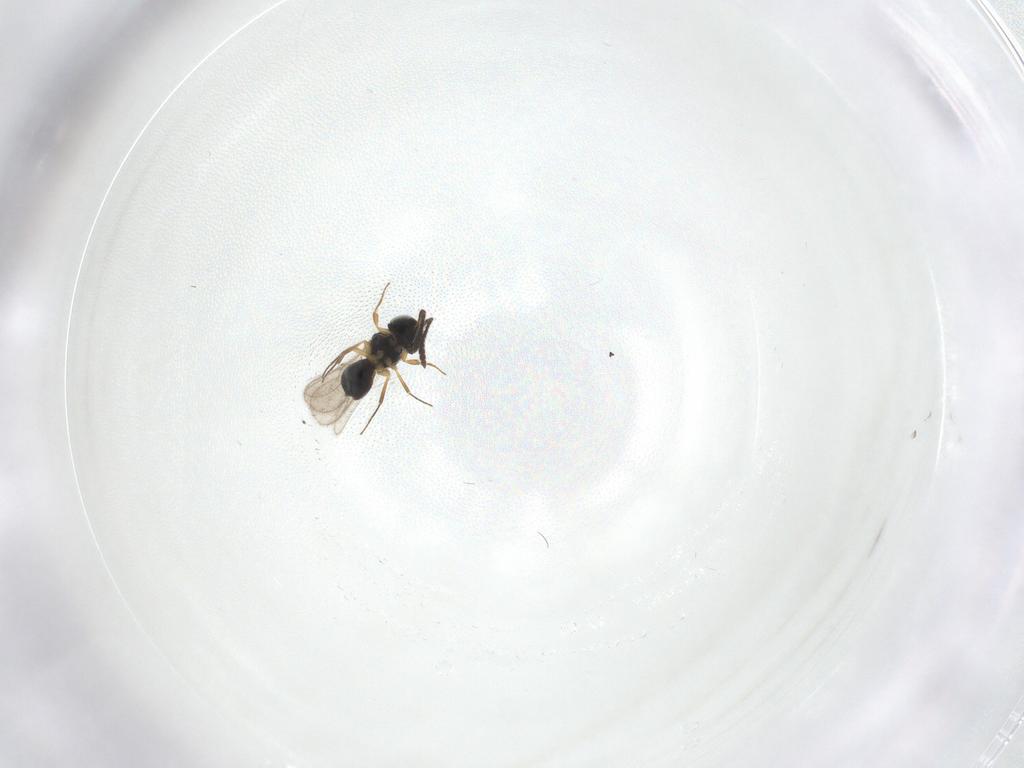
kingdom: Animalia
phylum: Arthropoda
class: Insecta
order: Hymenoptera
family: Scelionidae
